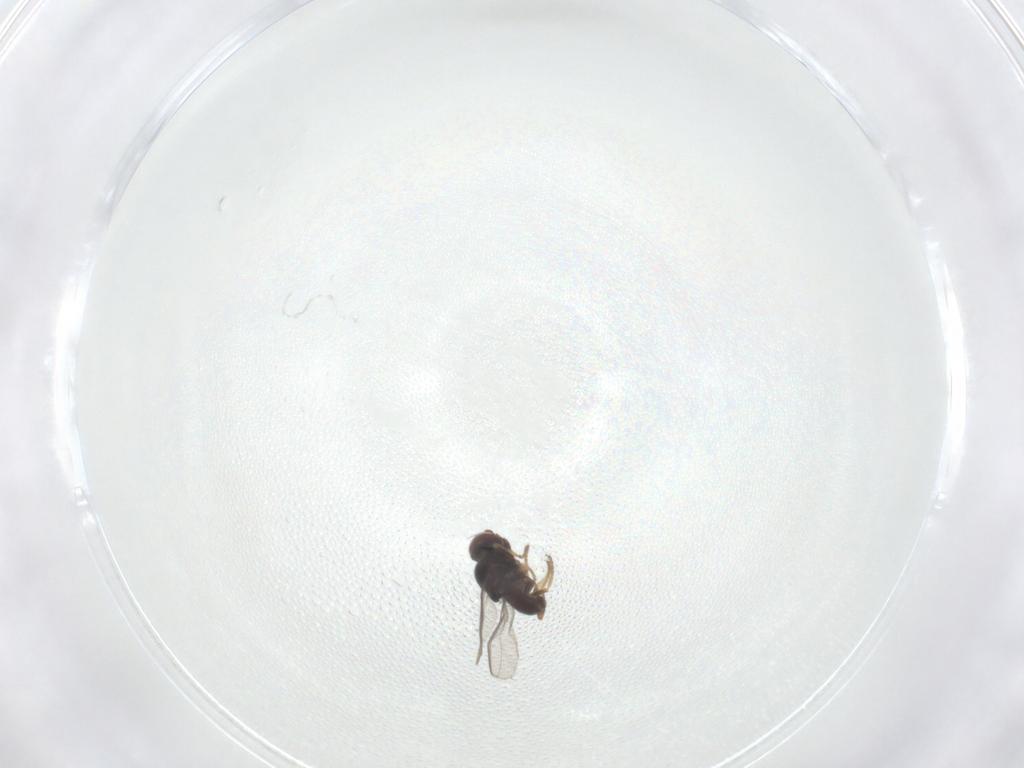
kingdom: Animalia
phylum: Arthropoda
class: Insecta
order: Diptera
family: Chloropidae
